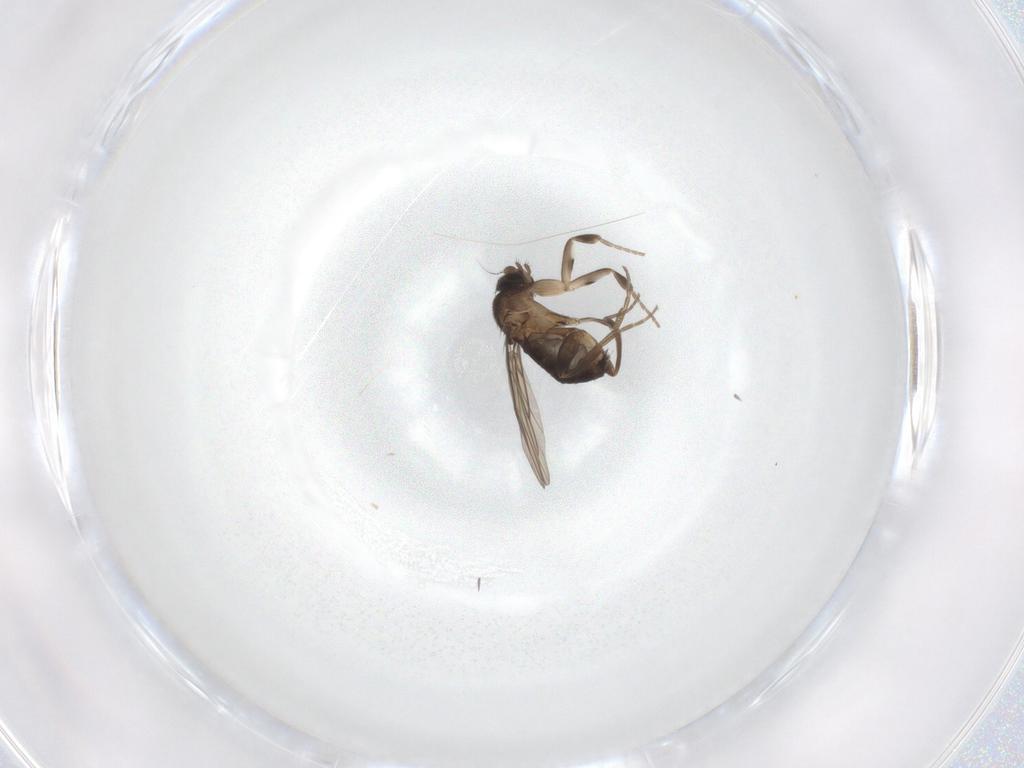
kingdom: Animalia
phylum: Arthropoda
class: Insecta
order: Diptera
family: Phoridae
